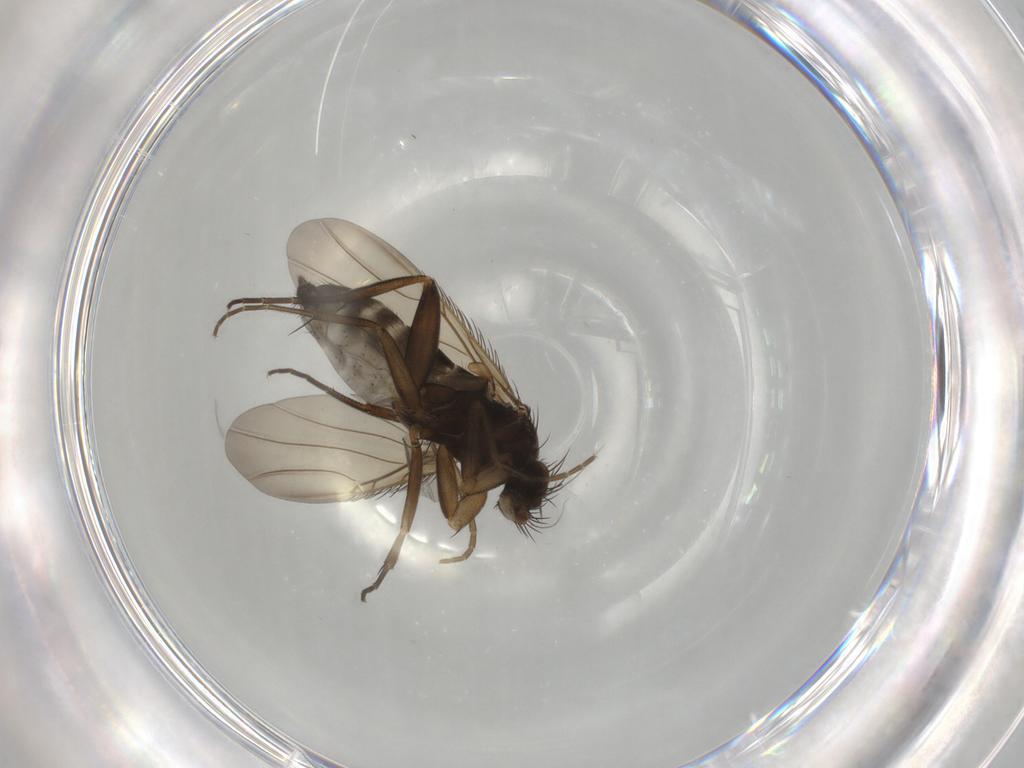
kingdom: Animalia
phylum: Arthropoda
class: Insecta
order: Diptera
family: Phoridae
